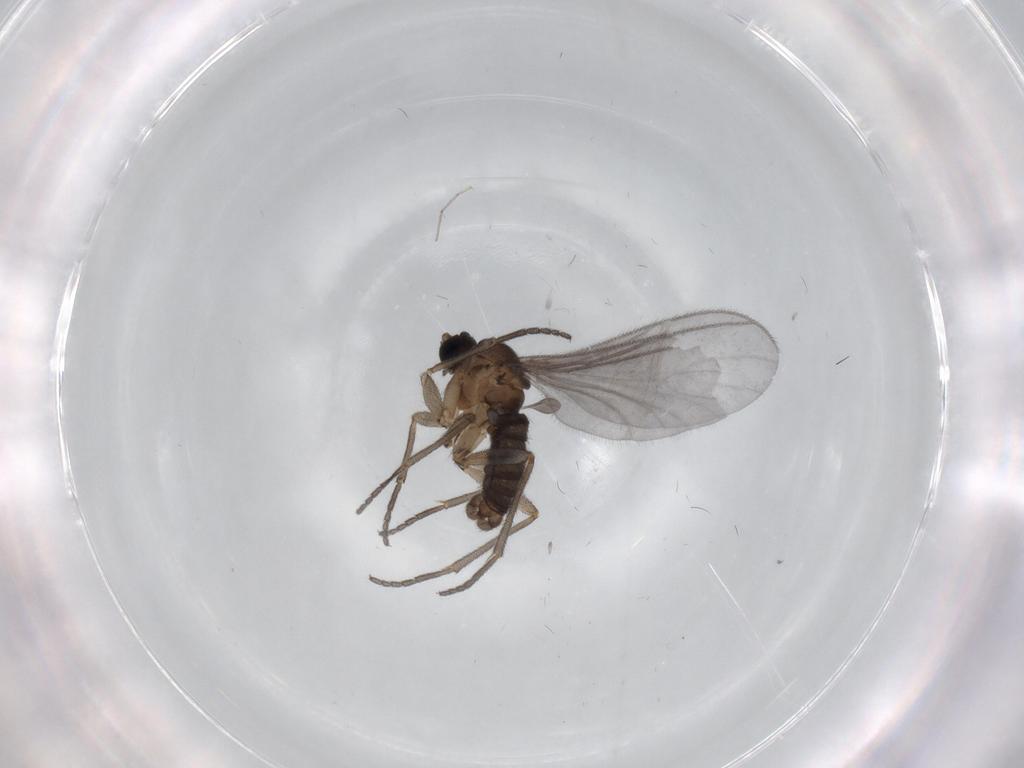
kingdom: Animalia
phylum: Arthropoda
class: Insecta
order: Diptera
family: Sciaridae
